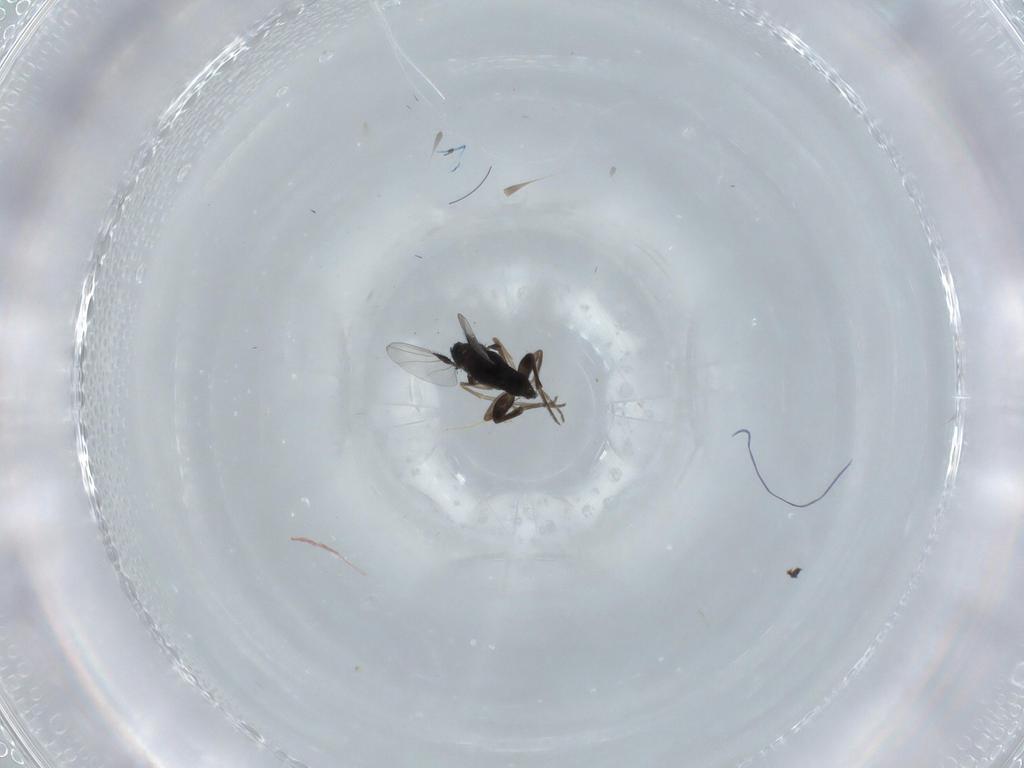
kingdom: Animalia
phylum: Arthropoda
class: Insecta
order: Diptera
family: Phoridae
